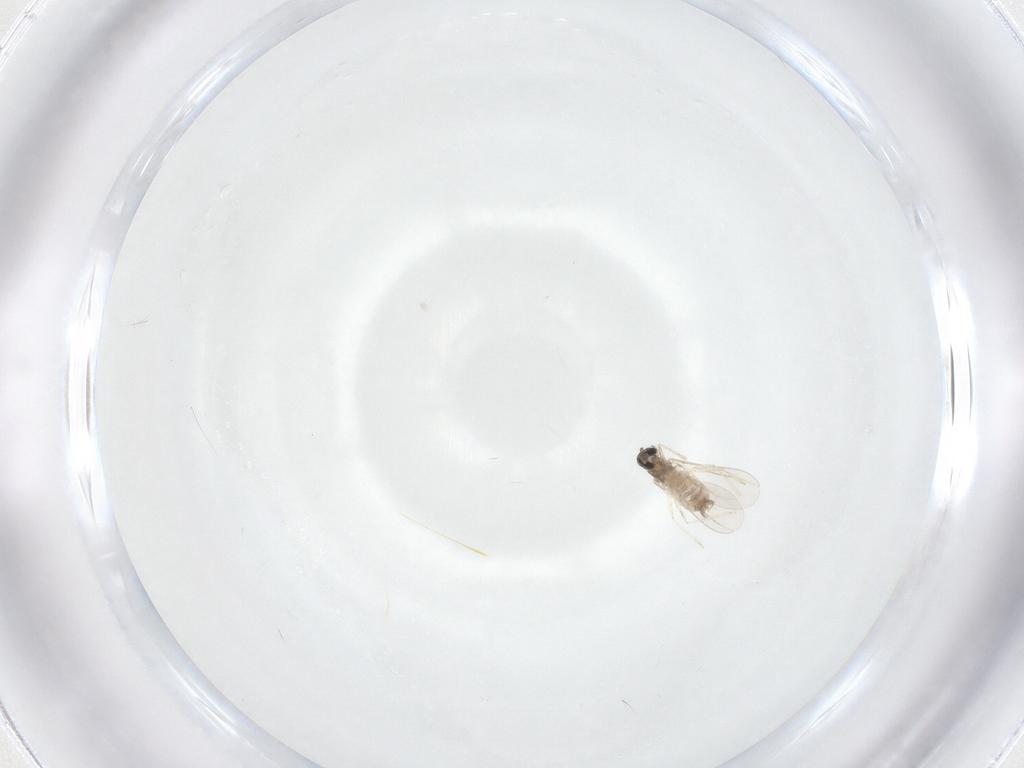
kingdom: Animalia
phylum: Arthropoda
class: Insecta
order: Diptera
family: Cecidomyiidae
